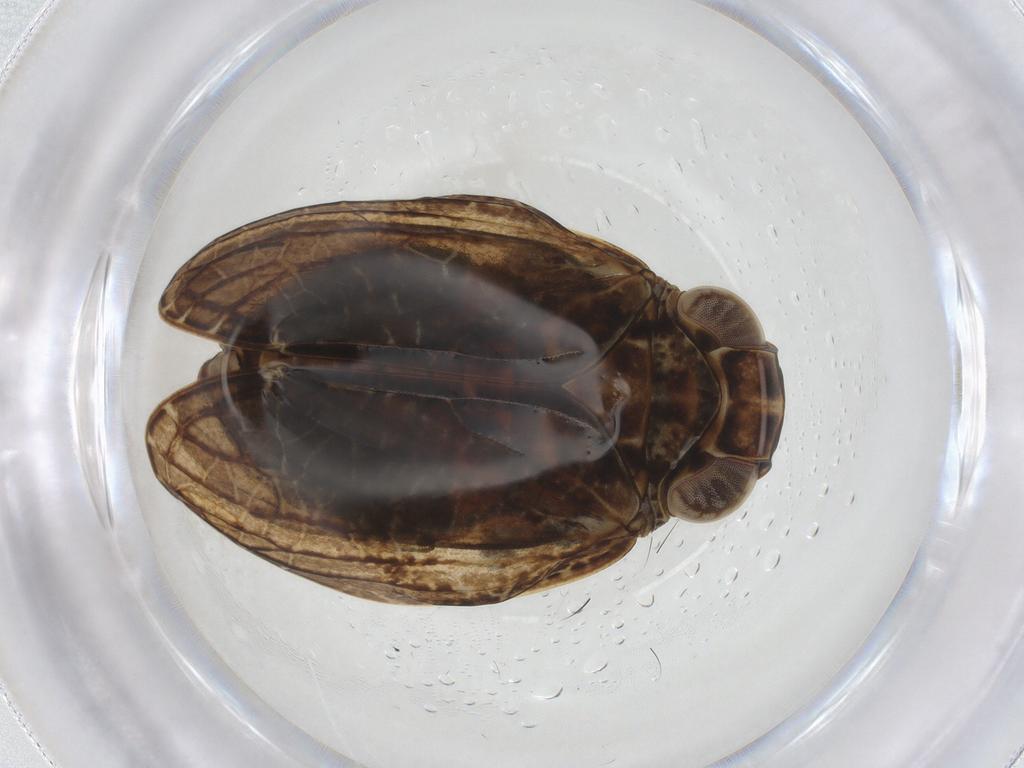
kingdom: Animalia
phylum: Arthropoda
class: Insecta
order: Hemiptera
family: Issidae
